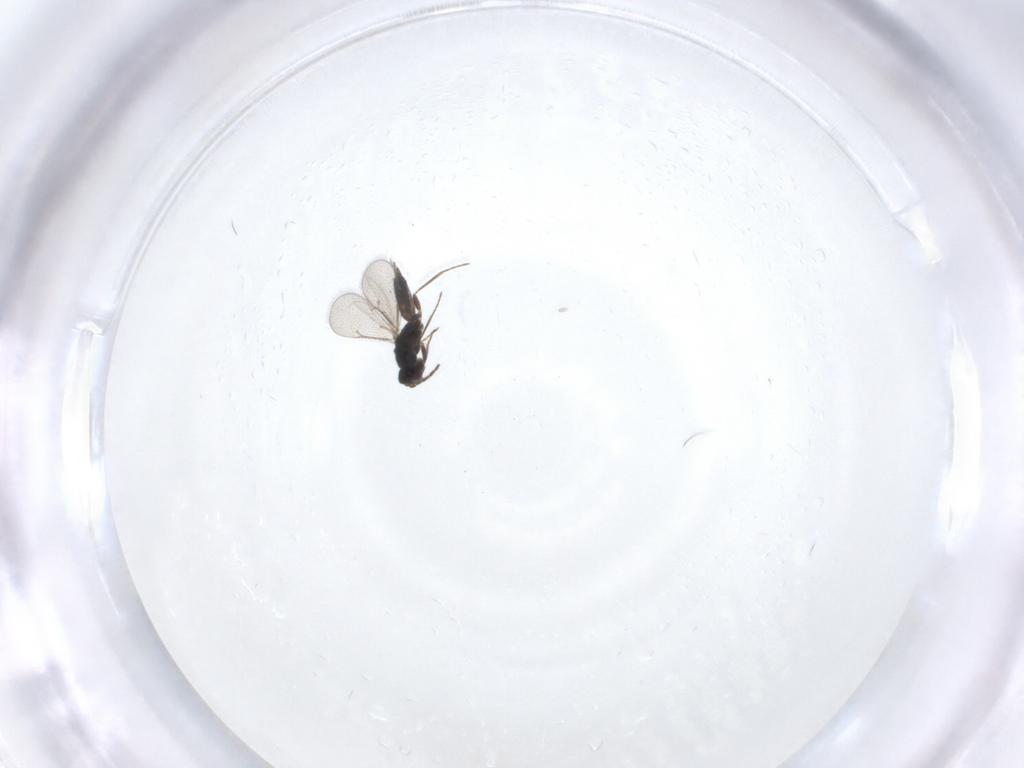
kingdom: Animalia
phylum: Arthropoda
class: Insecta
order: Hymenoptera
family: Eulophidae
